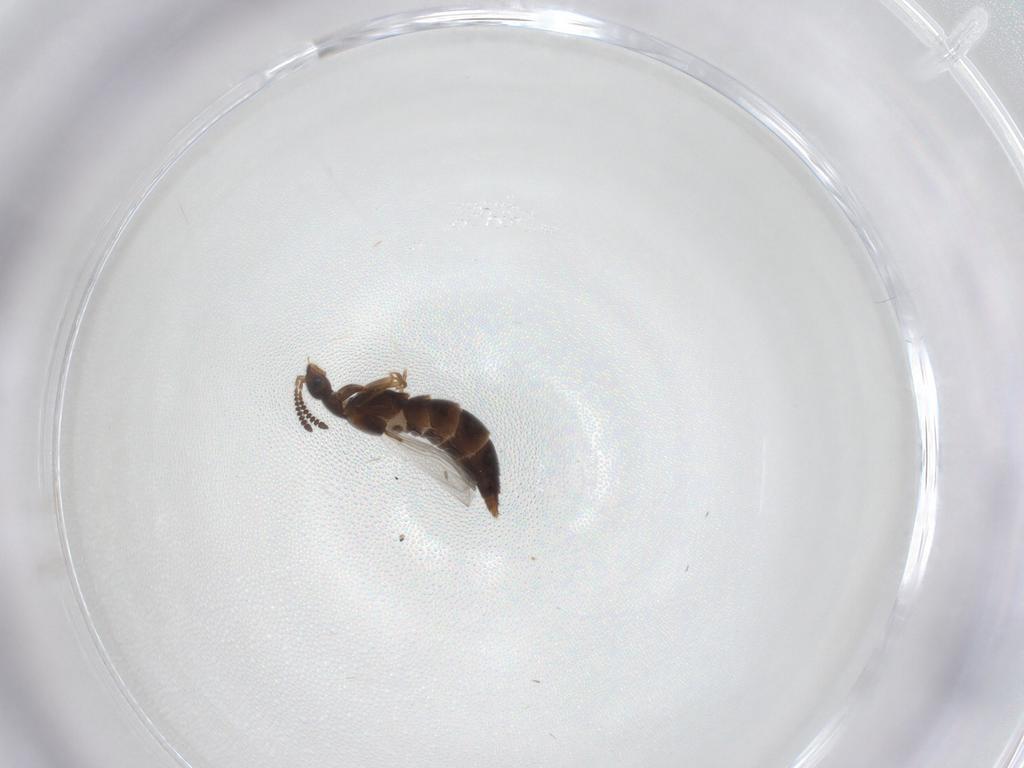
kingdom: Animalia
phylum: Arthropoda
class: Insecta
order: Coleoptera
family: Staphylinidae
